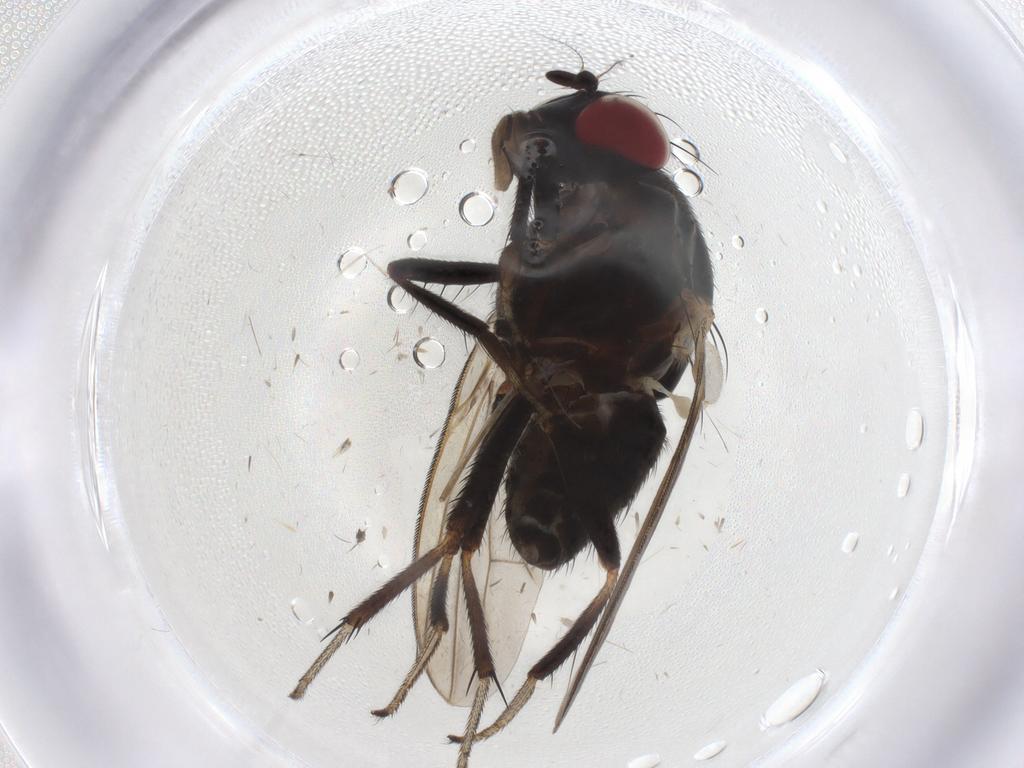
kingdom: Animalia
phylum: Arthropoda
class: Insecta
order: Diptera
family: Lauxaniidae
